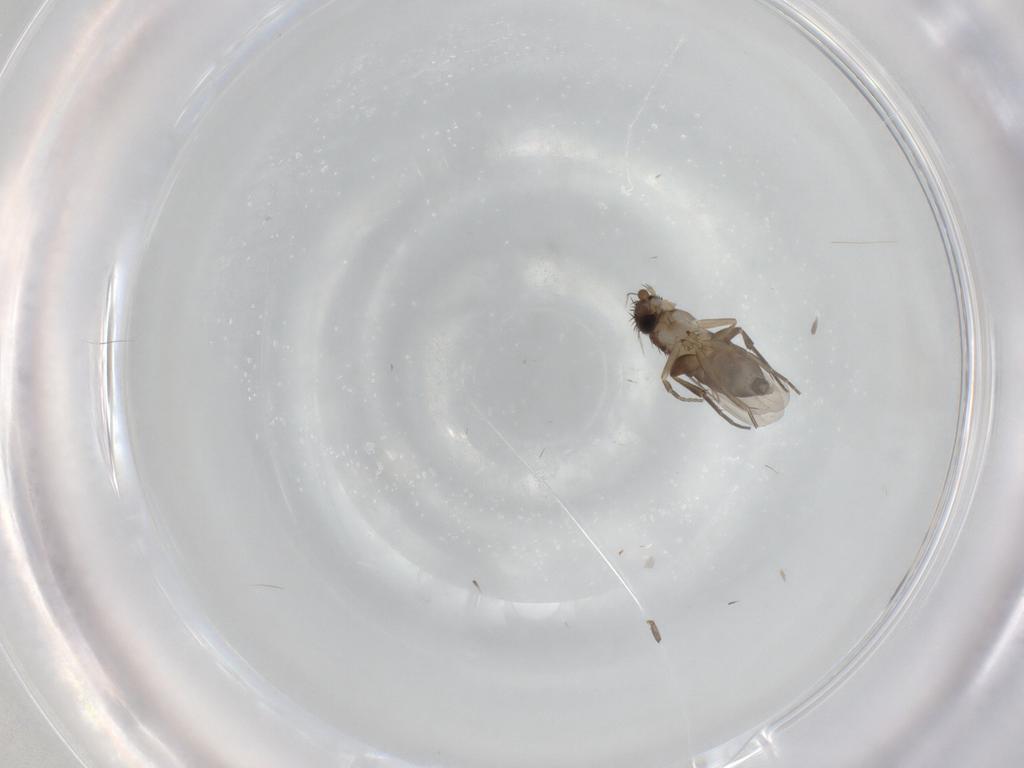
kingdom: Animalia
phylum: Arthropoda
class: Insecta
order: Diptera
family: Phoridae
